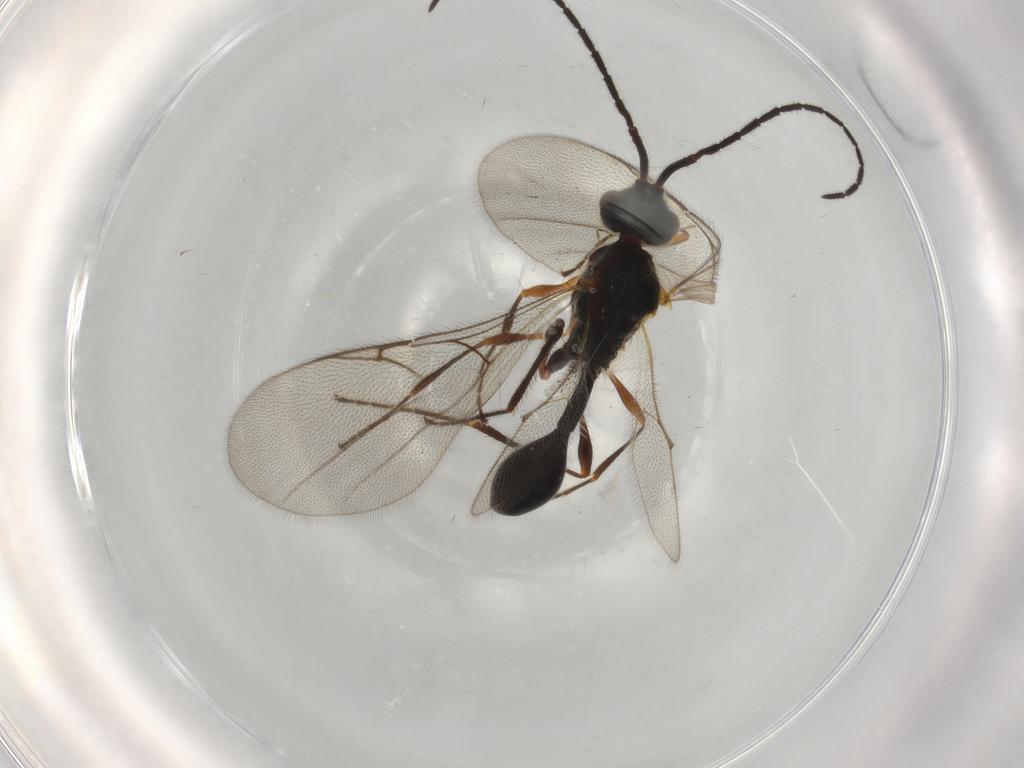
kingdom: Animalia
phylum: Arthropoda
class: Insecta
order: Hymenoptera
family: Diapriidae
